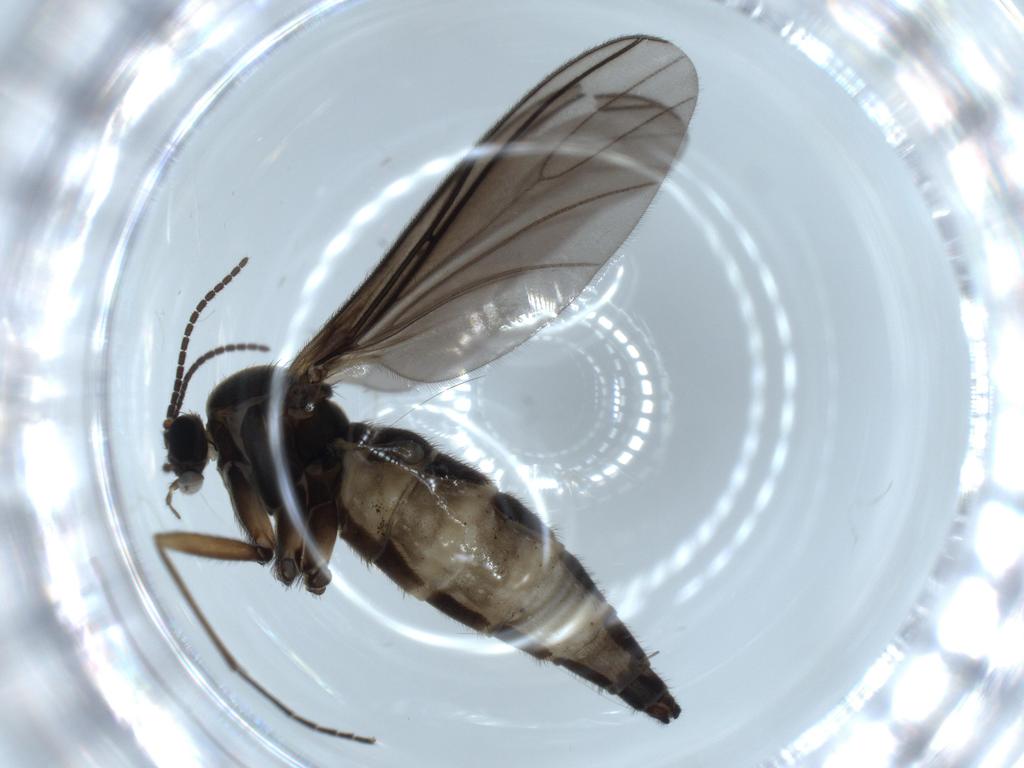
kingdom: Animalia
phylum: Arthropoda
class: Insecta
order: Diptera
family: Sciaridae
